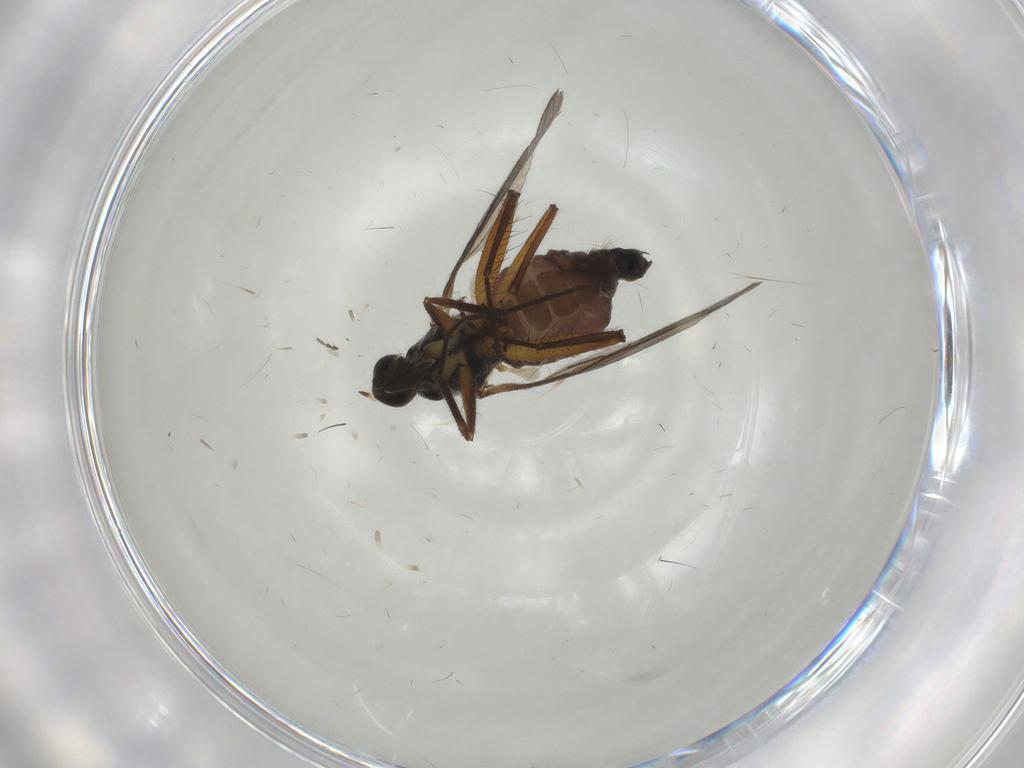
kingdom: Animalia
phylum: Arthropoda
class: Insecta
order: Diptera
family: Hybotidae
